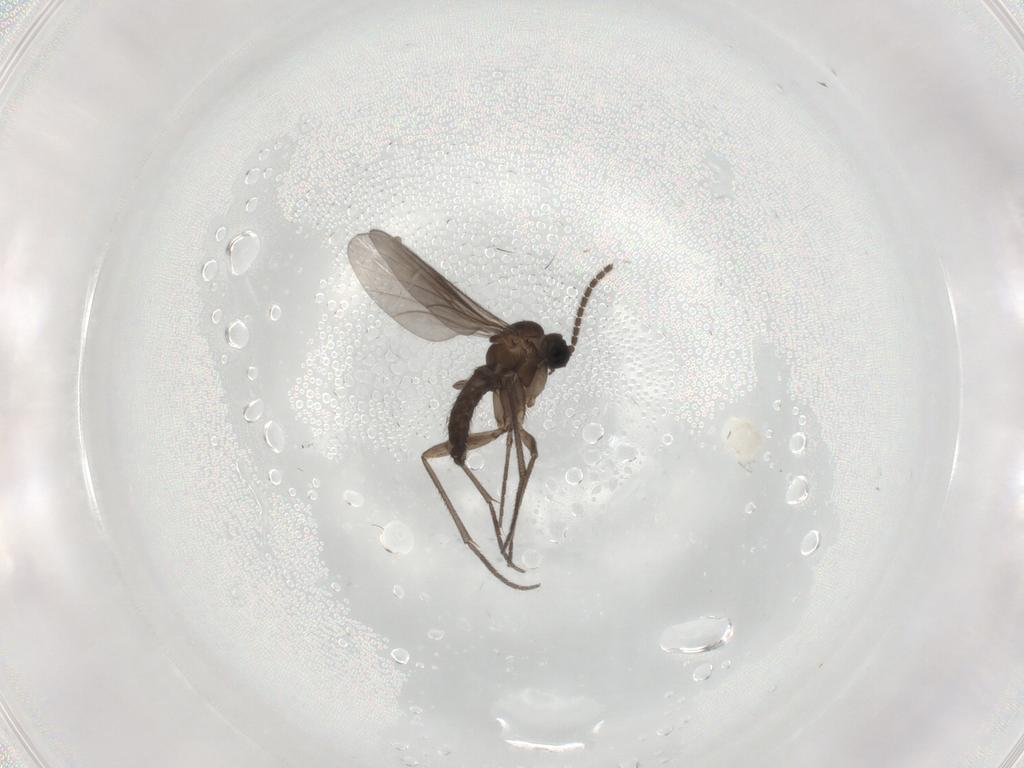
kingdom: Animalia
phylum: Arthropoda
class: Insecta
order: Diptera
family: Sciaridae
